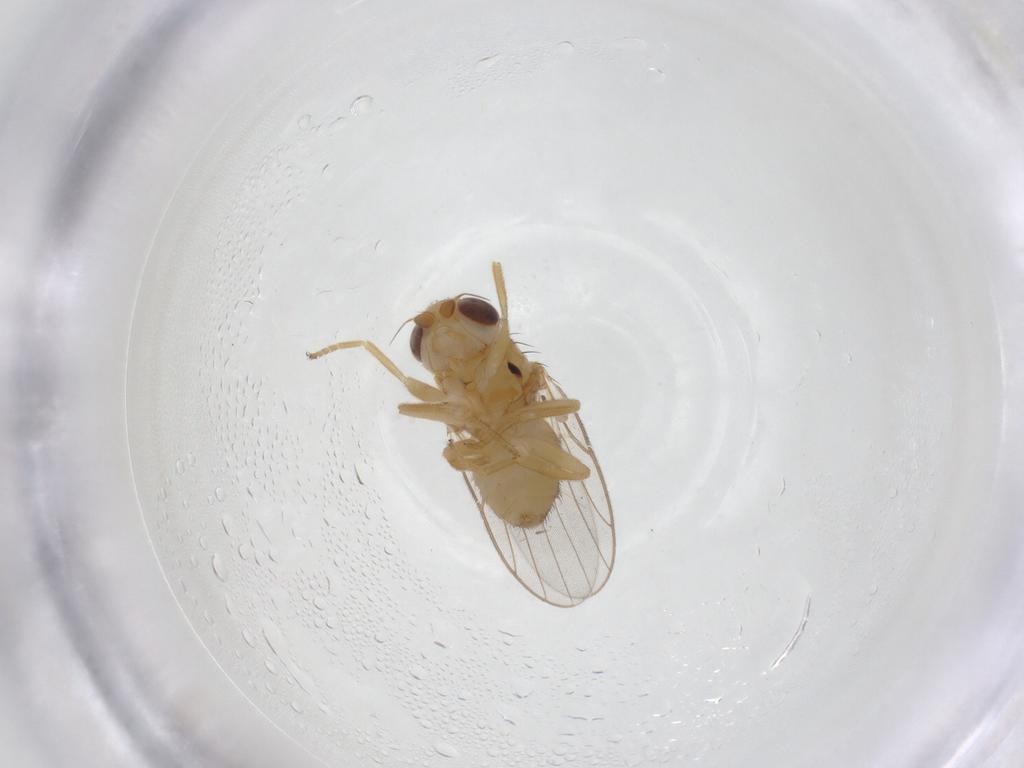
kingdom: Animalia
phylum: Arthropoda
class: Insecta
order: Diptera
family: Chloropidae
